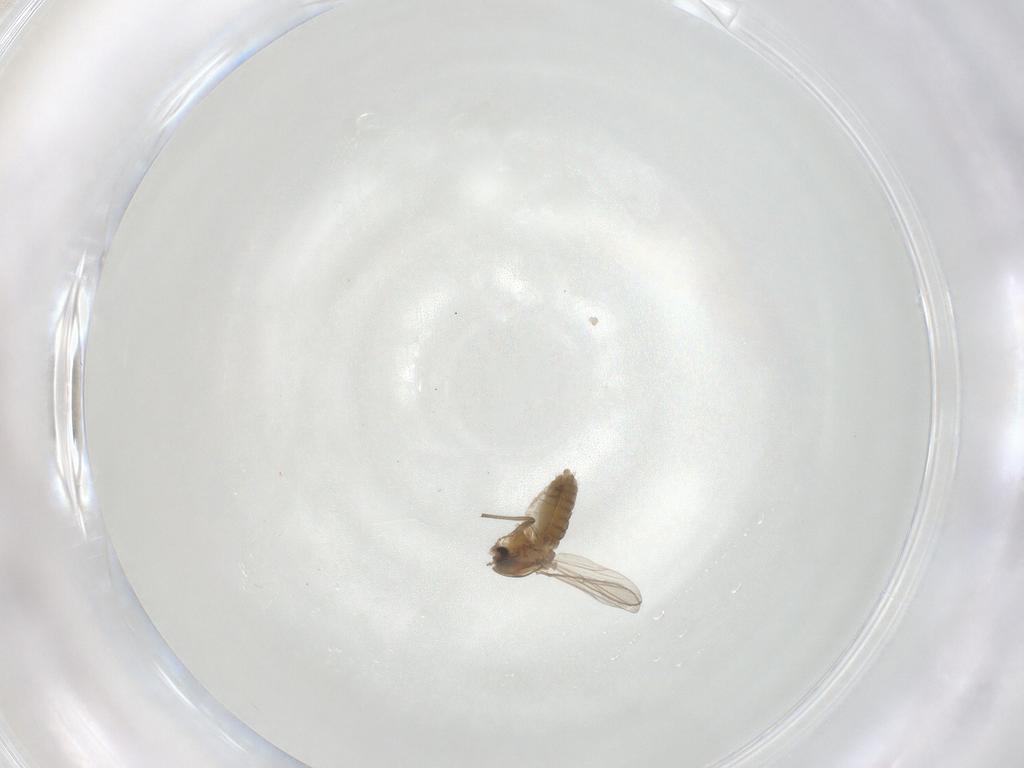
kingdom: Animalia
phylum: Arthropoda
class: Insecta
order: Diptera
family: Chironomidae
